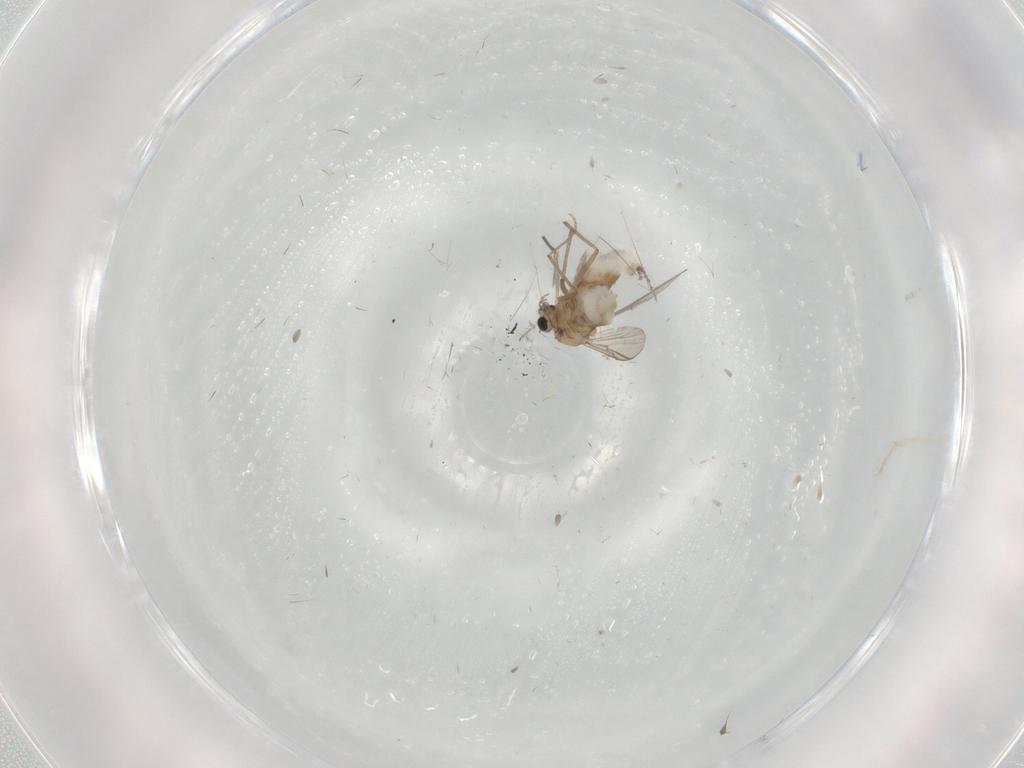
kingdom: Animalia
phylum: Arthropoda
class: Insecta
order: Diptera
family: Chironomidae
